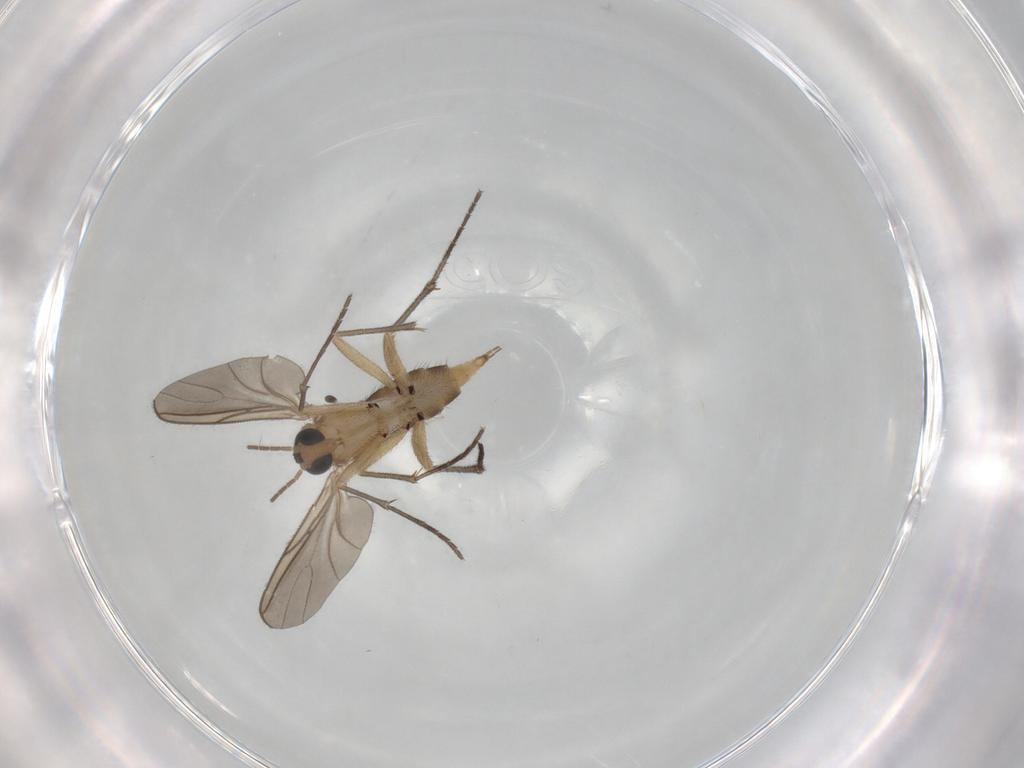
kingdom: Animalia
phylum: Arthropoda
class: Insecta
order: Diptera
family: Sciaridae
